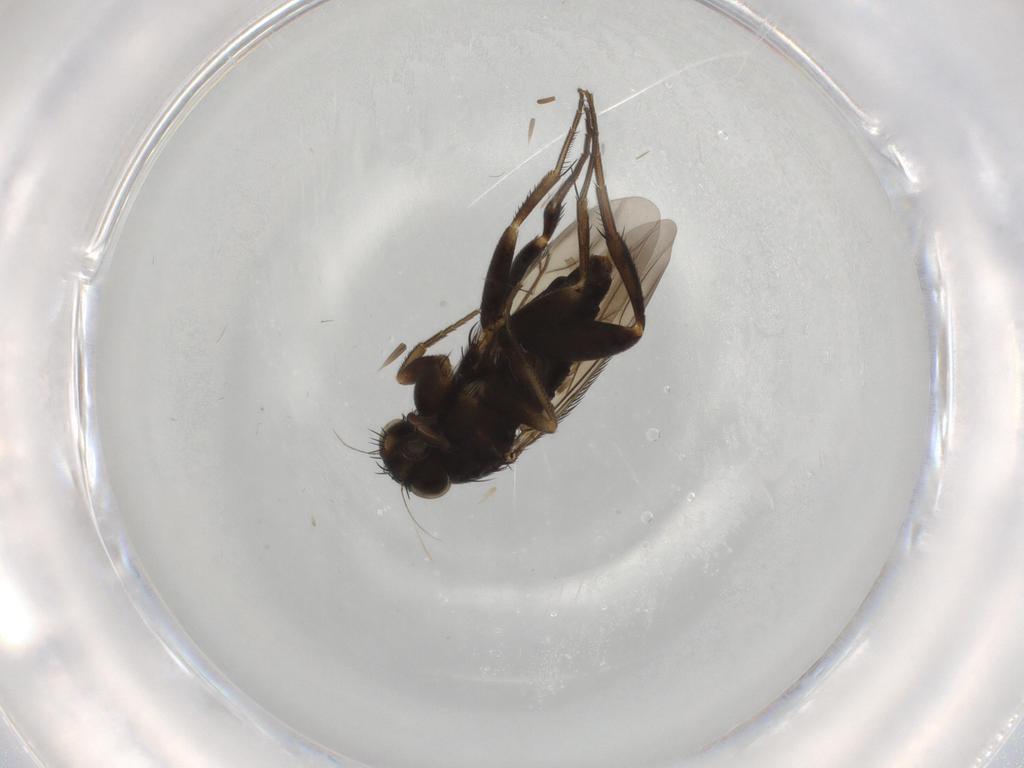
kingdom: Animalia
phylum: Arthropoda
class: Insecta
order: Diptera
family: Phoridae
